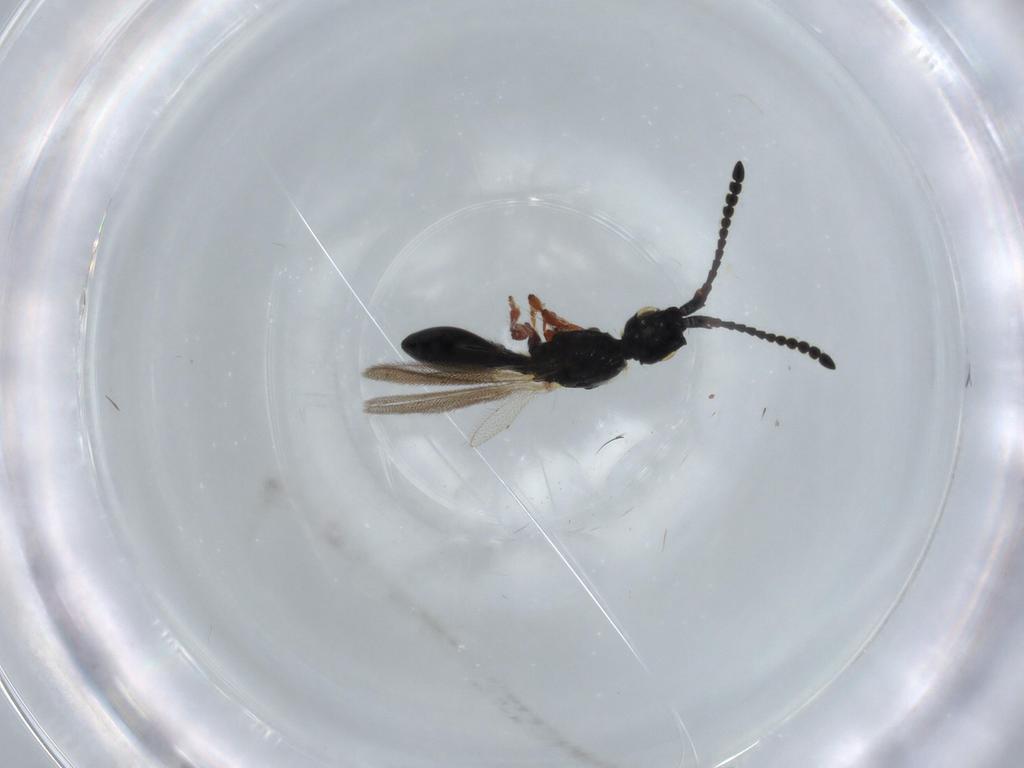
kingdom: Animalia
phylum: Arthropoda
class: Insecta
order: Hymenoptera
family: Diapriidae
